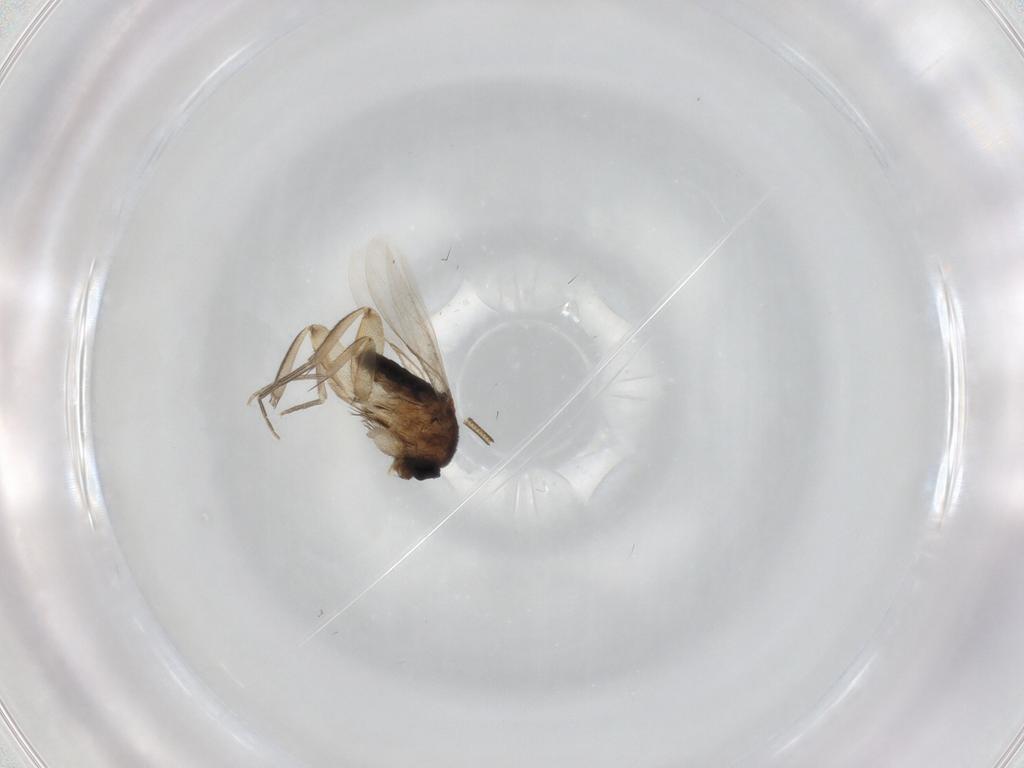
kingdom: Animalia
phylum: Arthropoda
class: Insecta
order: Diptera
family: Phoridae
